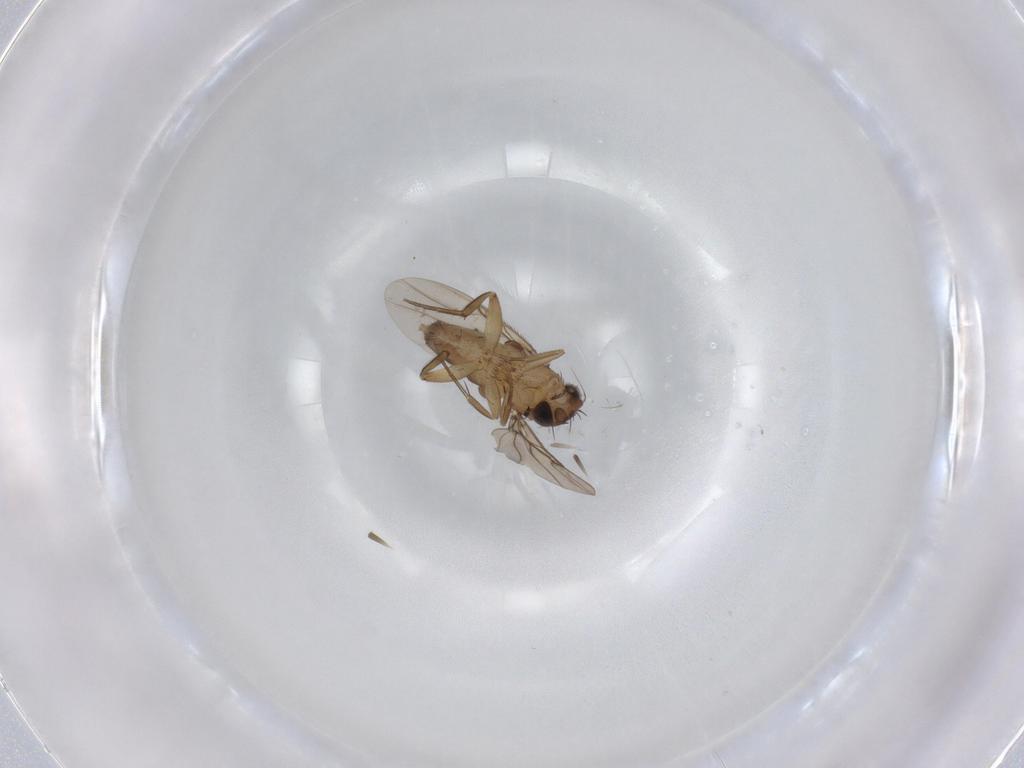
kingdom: Animalia
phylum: Arthropoda
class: Insecta
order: Diptera
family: Phoridae
